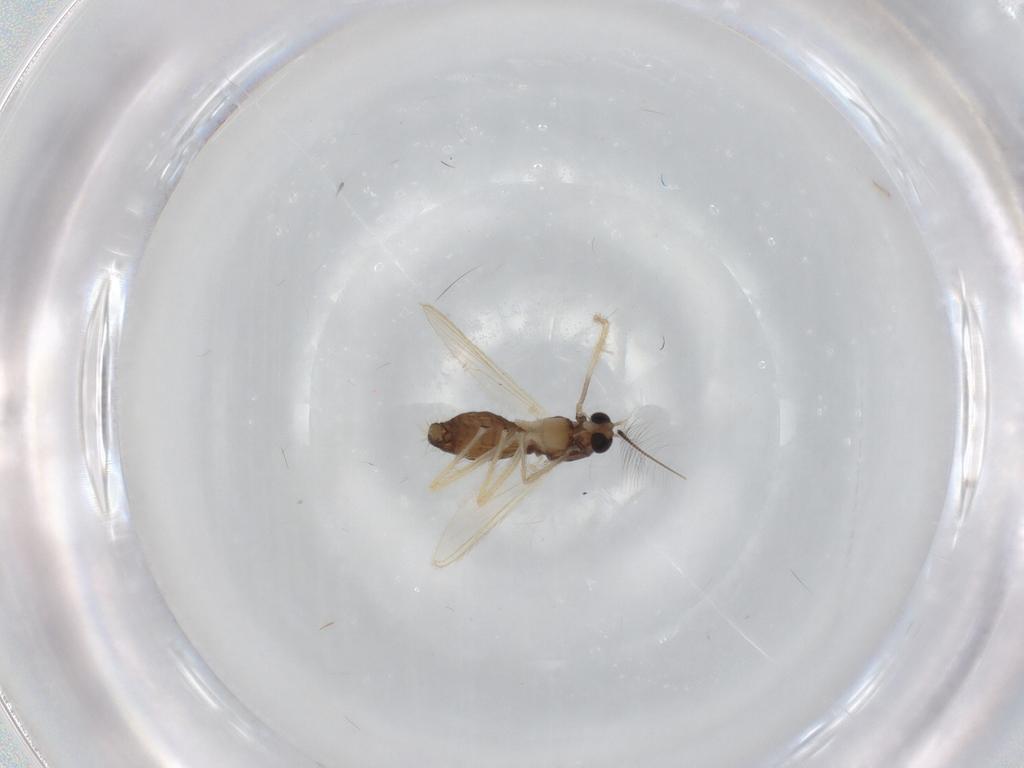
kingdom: Animalia
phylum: Arthropoda
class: Insecta
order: Diptera
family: Chironomidae
